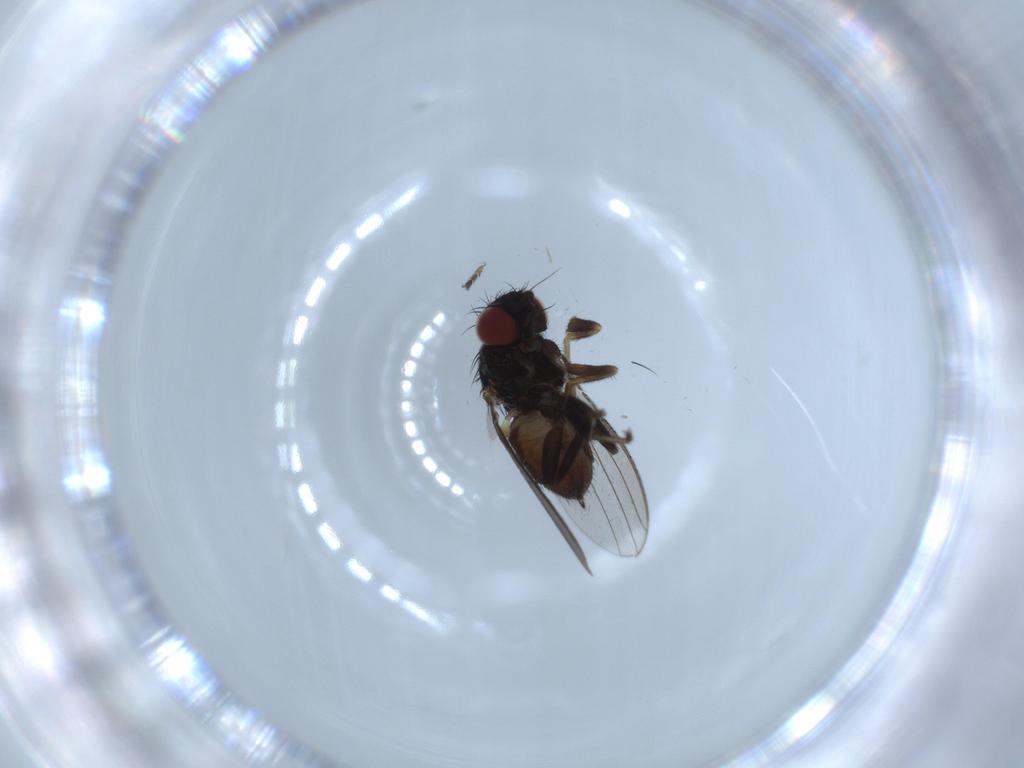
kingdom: Animalia
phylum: Arthropoda
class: Insecta
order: Diptera
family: Milichiidae
